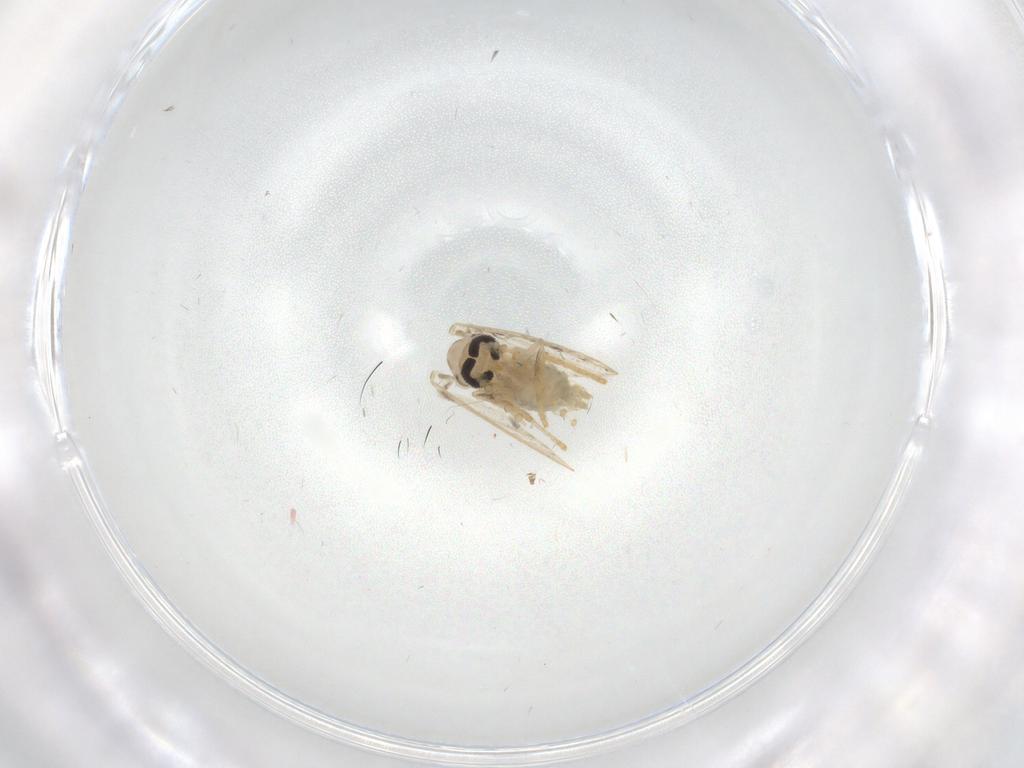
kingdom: Animalia
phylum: Arthropoda
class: Insecta
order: Diptera
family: Psychodidae
